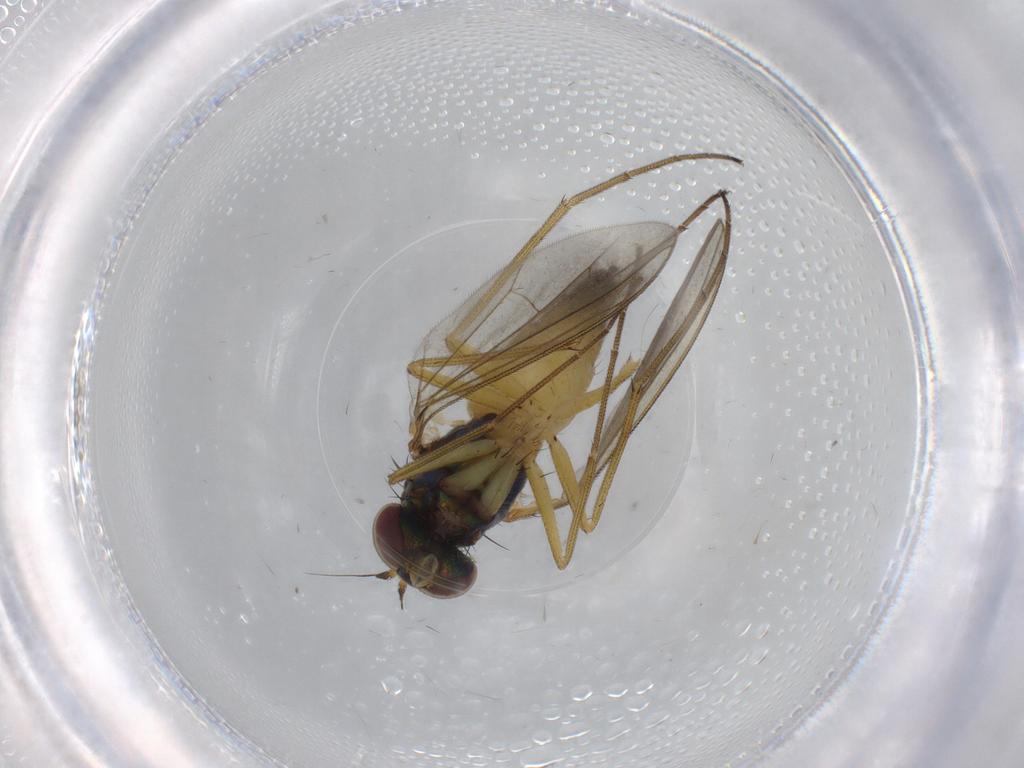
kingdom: Animalia
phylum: Arthropoda
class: Insecta
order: Diptera
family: Dolichopodidae
